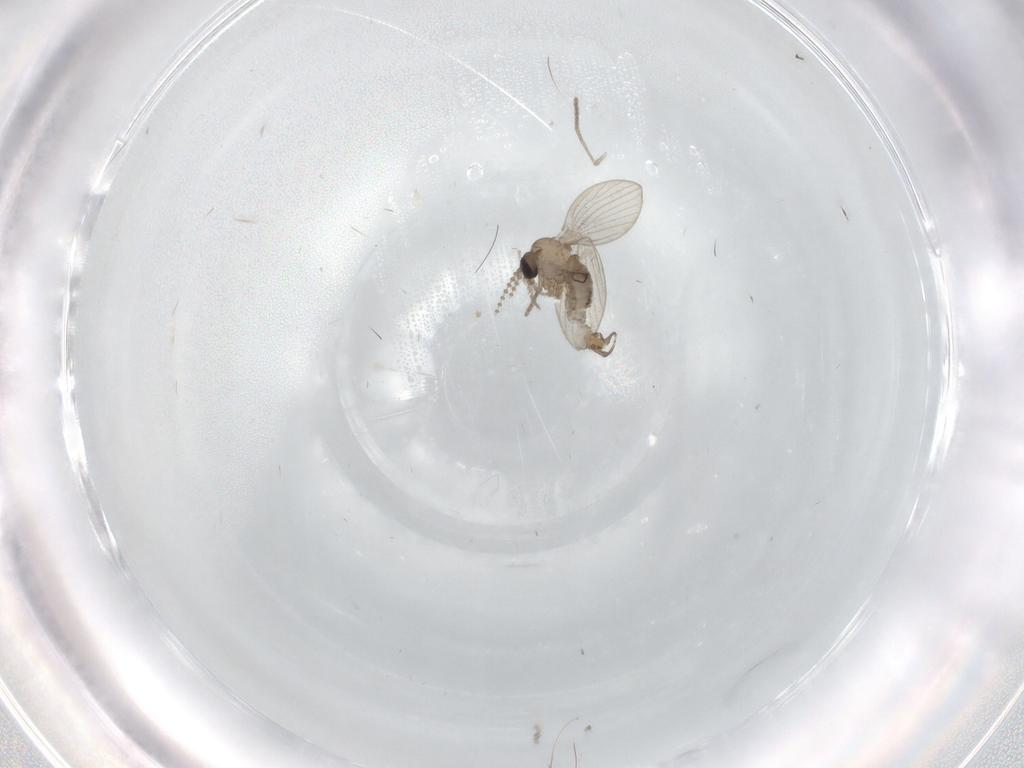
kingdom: Animalia
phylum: Arthropoda
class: Insecta
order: Diptera
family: Psychodidae
